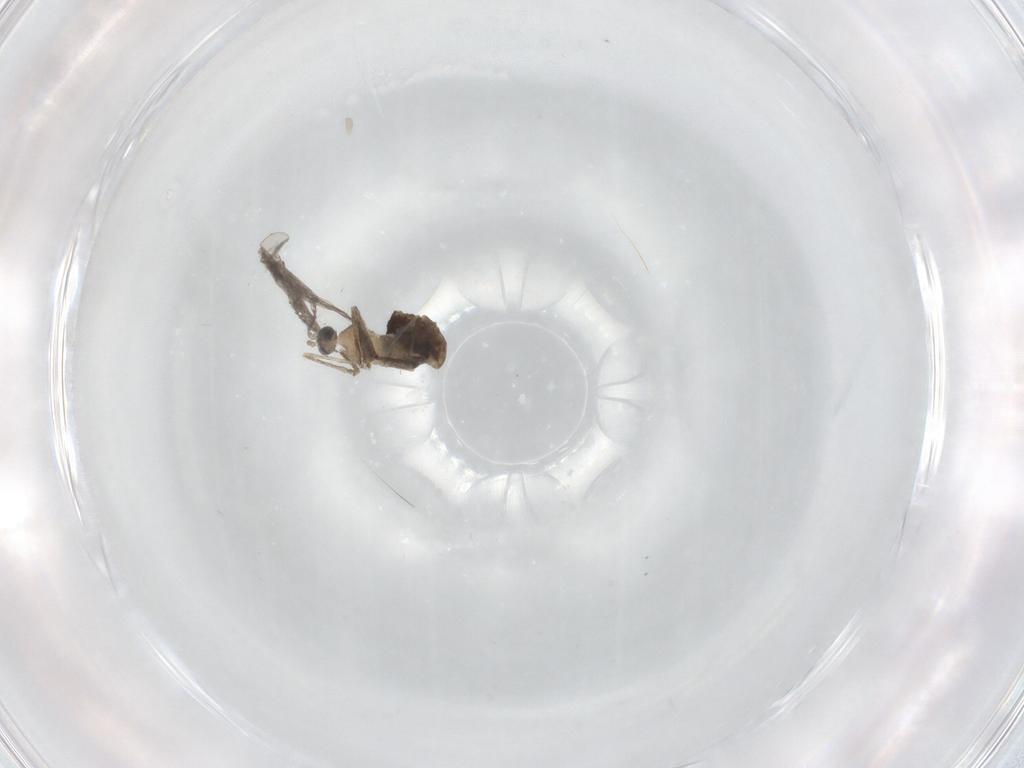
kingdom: Animalia
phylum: Arthropoda
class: Insecta
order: Diptera
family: Cecidomyiidae
